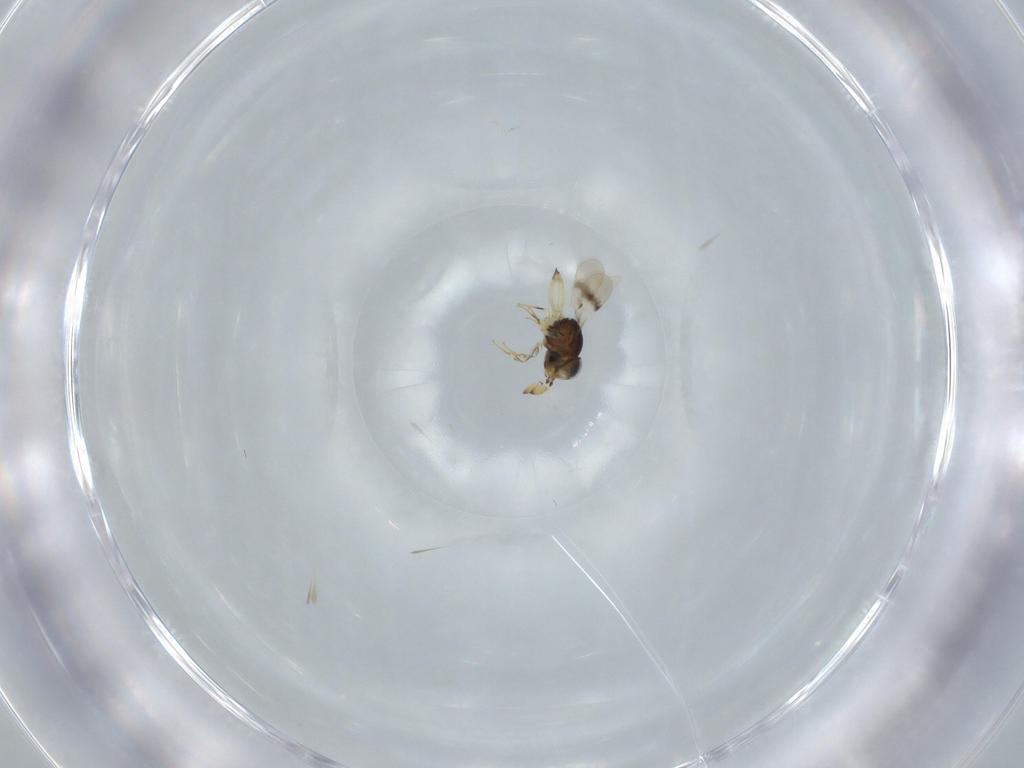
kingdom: Animalia
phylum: Arthropoda
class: Insecta
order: Hymenoptera
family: Scelionidae
